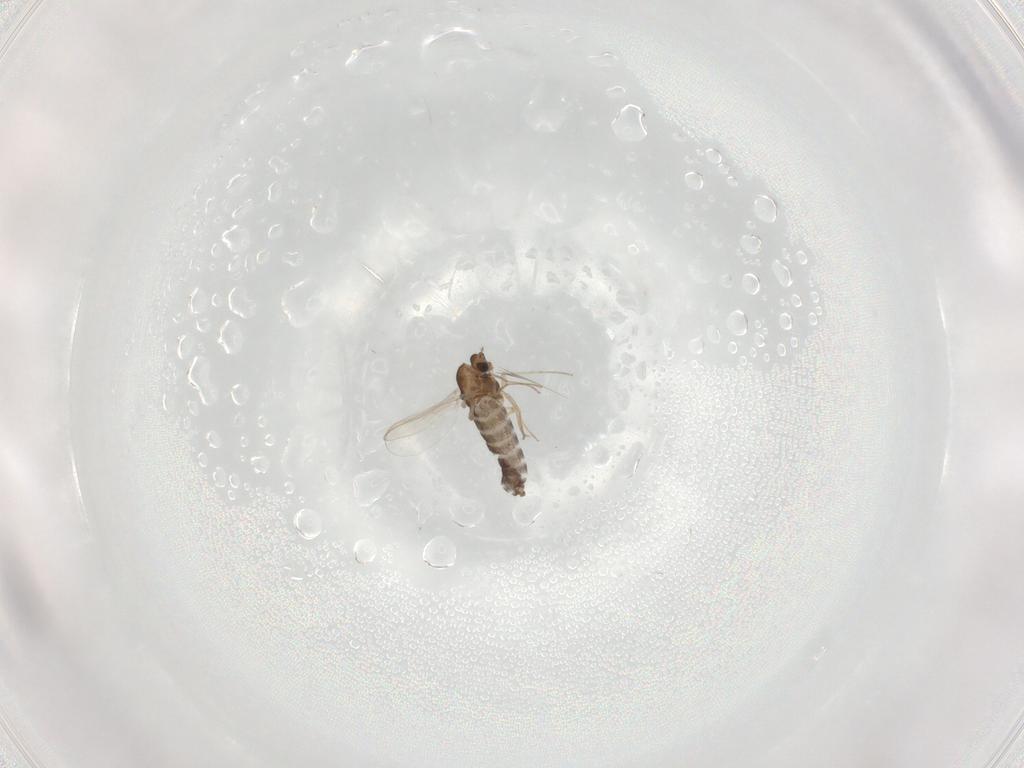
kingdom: Animalia
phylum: Arthropoda
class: Insecta
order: Diptera
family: Chironomidae
